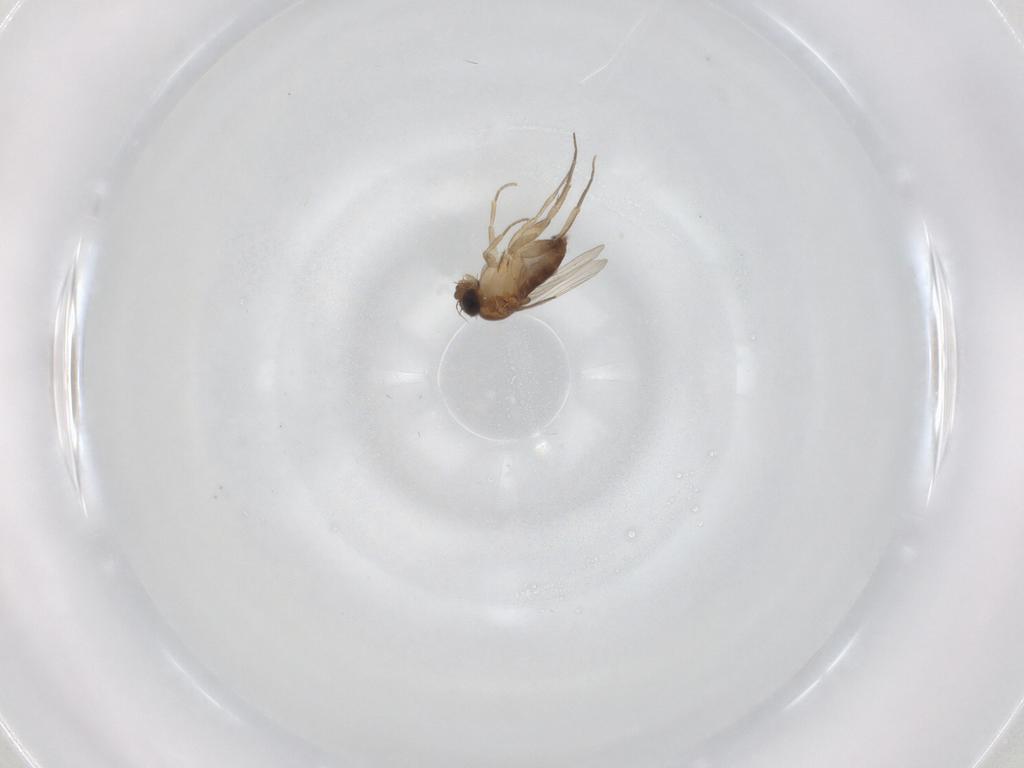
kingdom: Animalia
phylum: Arthropoda
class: Insecta
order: Diptera
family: Phoridae
